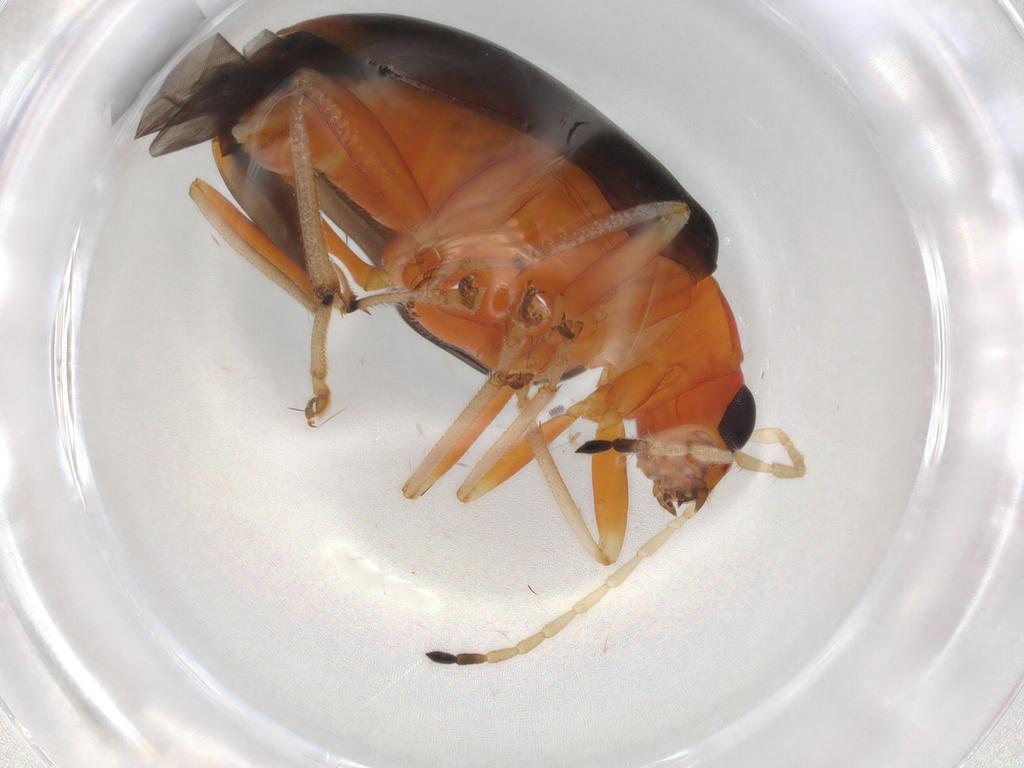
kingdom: Animalia
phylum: Arthropoda
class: Insecta
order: Coleoptera
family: Chrysomelidae
